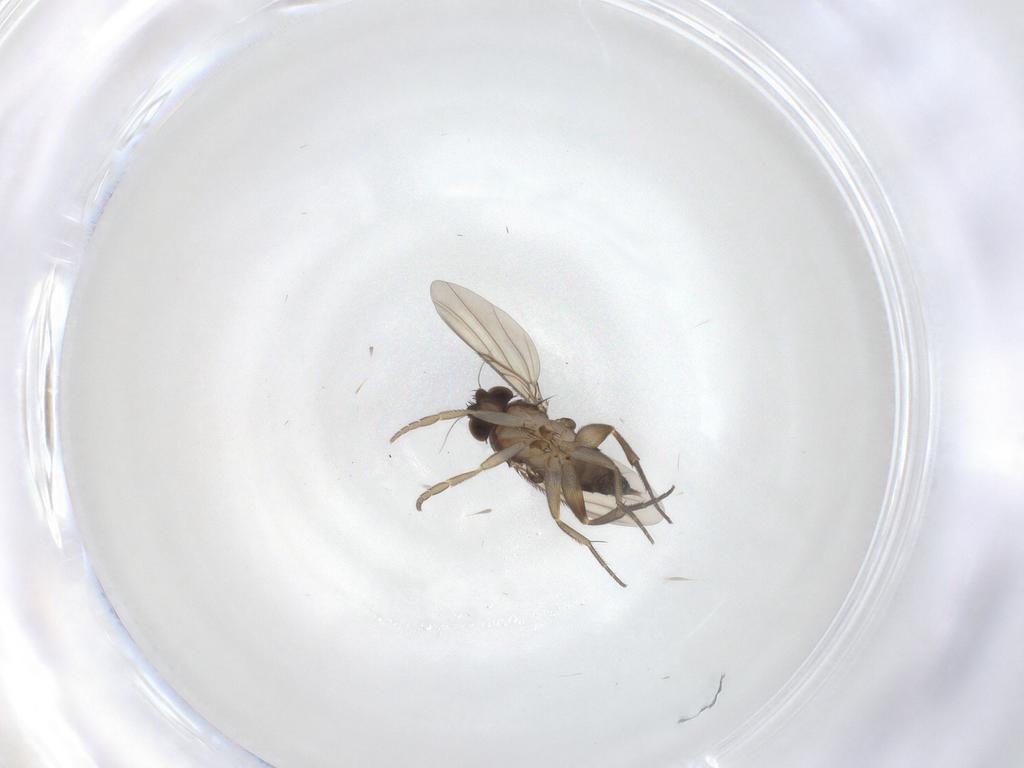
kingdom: Animalia
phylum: Arthropoda
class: Insecta
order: Diptera
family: Phoridae
